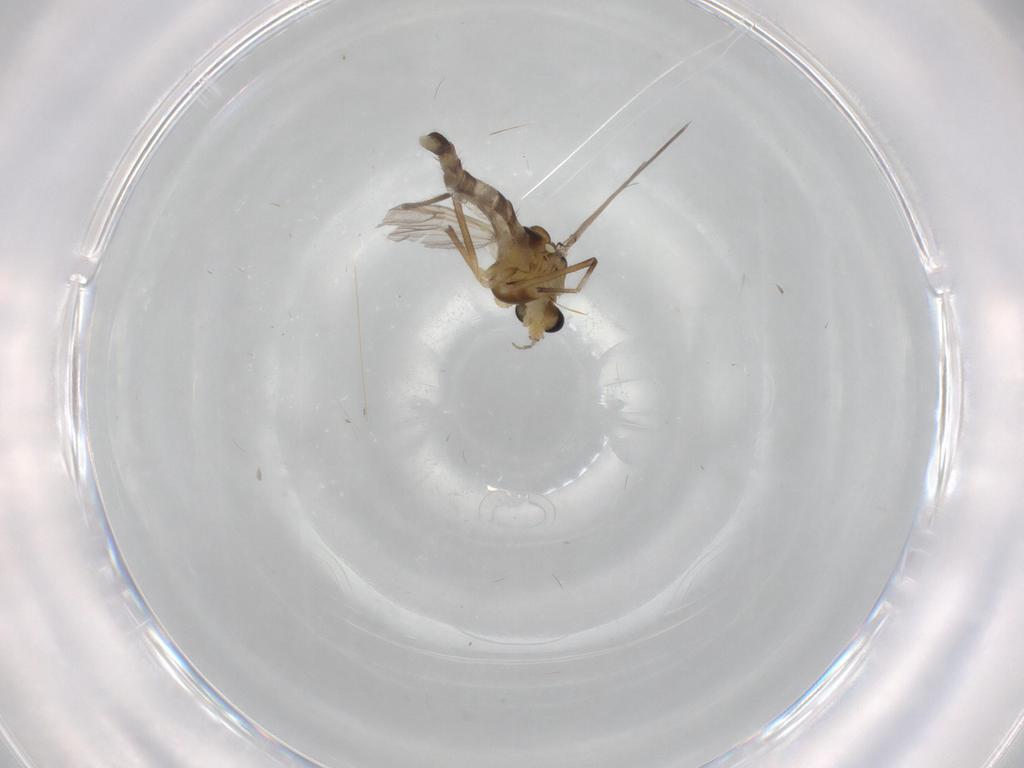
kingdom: Animalia
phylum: Arthropoda
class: Insecta
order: Diptera
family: Chironomidae
